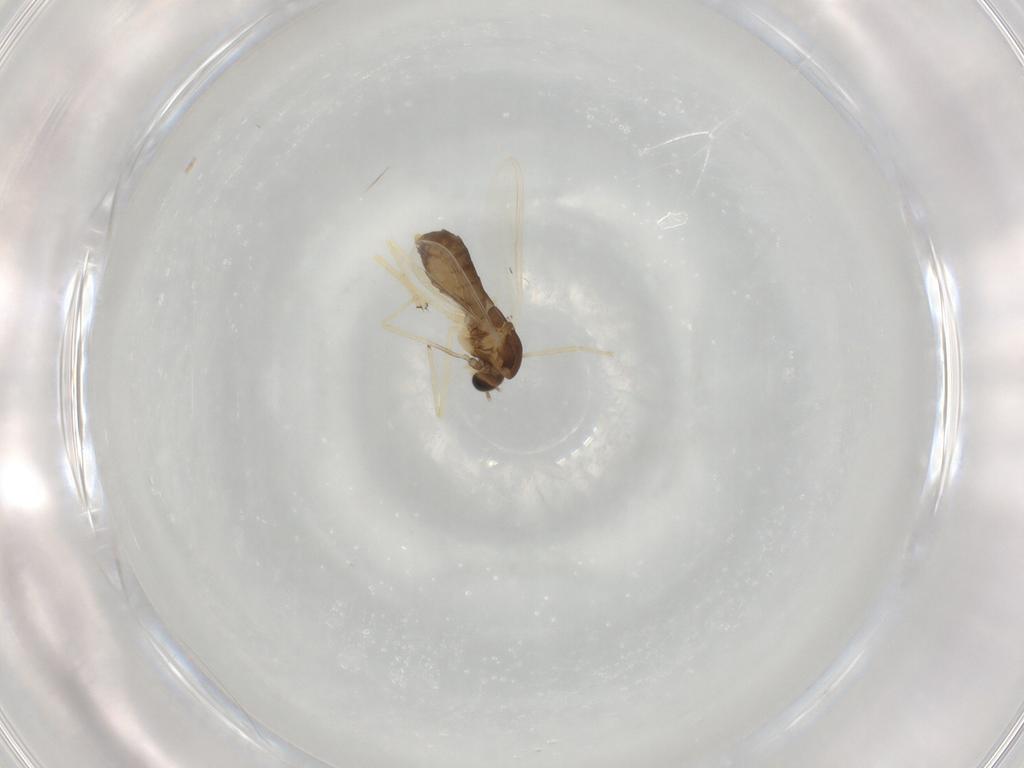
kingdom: Animalia
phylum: Arthropoda
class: Insecta
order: Diptera
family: Chironomidae
